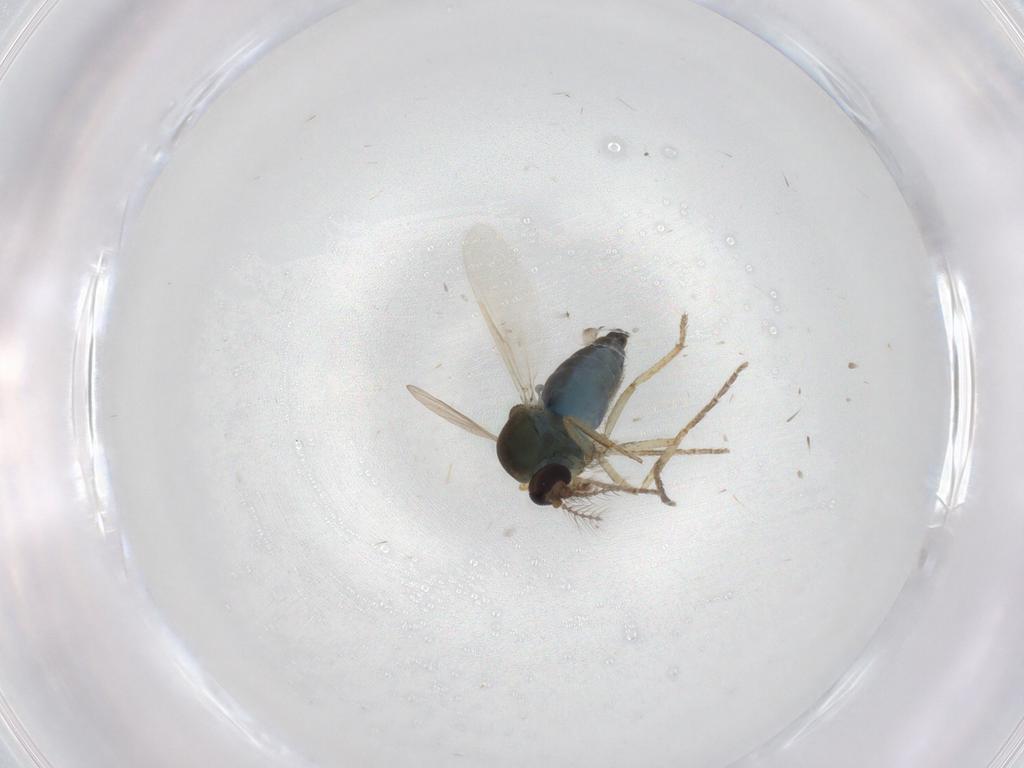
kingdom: Animalia
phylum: Arthropoda
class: Insecta
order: Diptera
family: Ceratopogonidae
